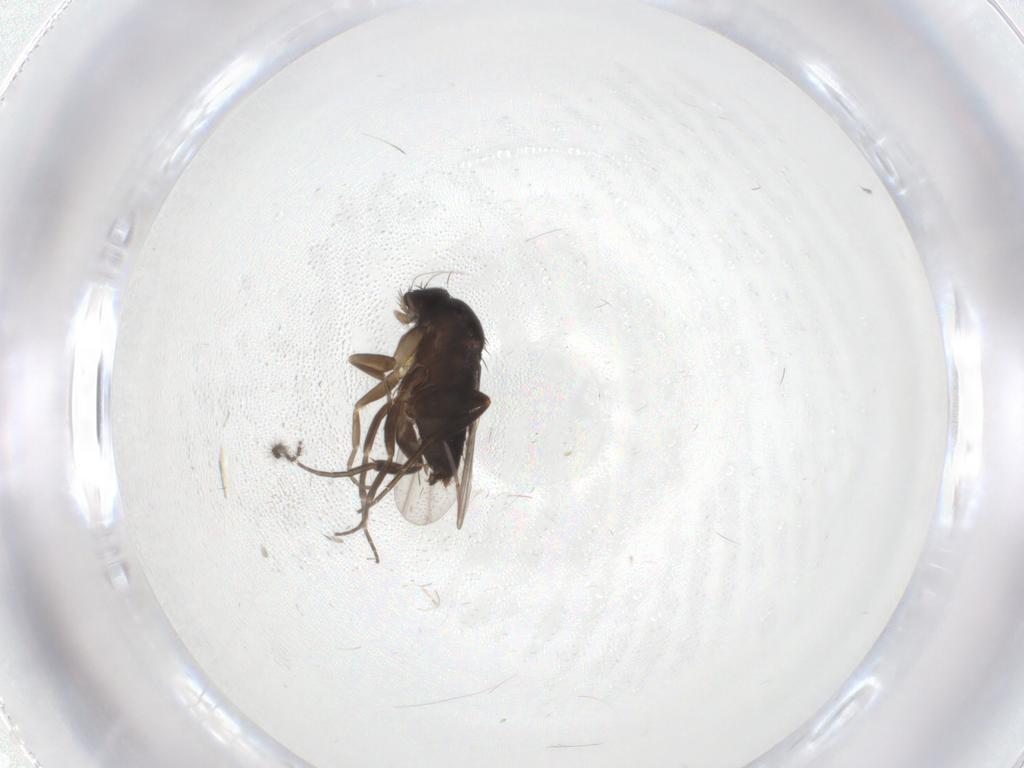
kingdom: Animalia
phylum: Arthropoda
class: Insecta
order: Diptera
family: Phoridae
